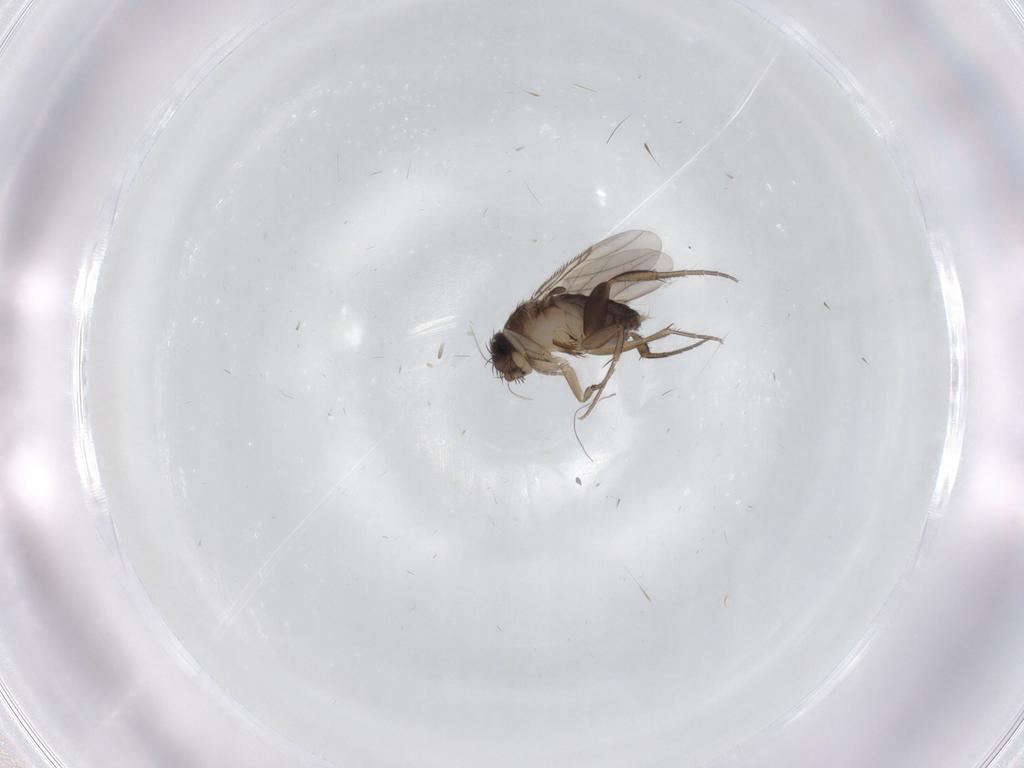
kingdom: Animalia
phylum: Arthropoda
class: Insecta
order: Diptera
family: Phoridae
